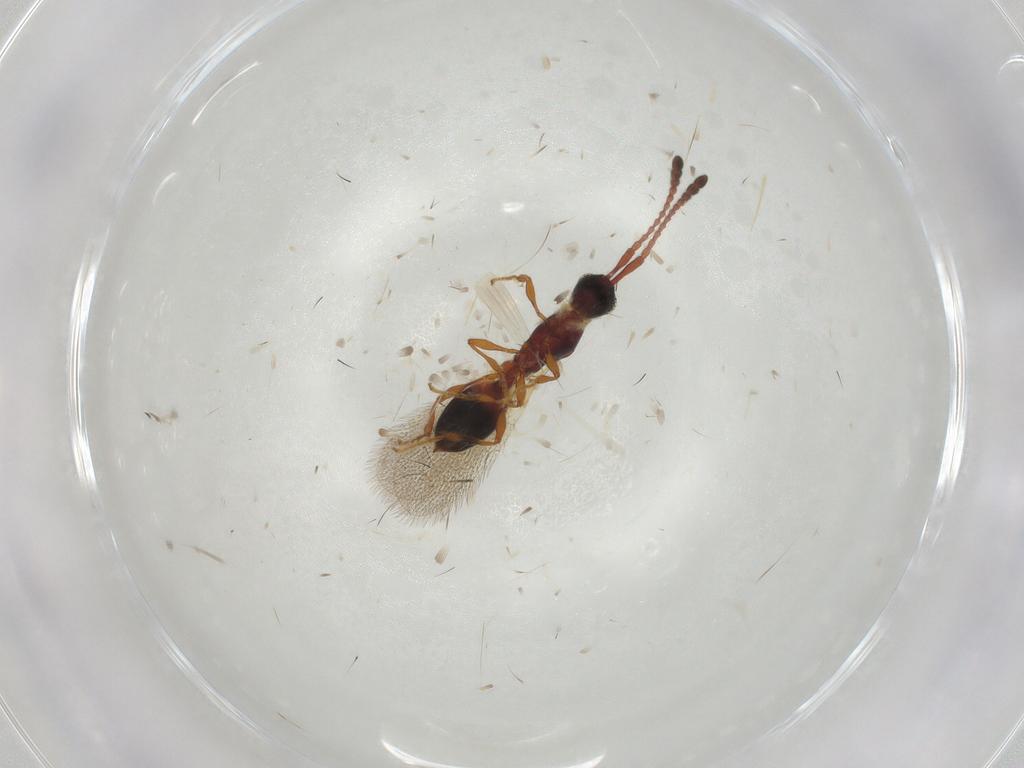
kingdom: Animalia
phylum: Arthropoda
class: Insecta
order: Hymenoptera
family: Diapriidae
